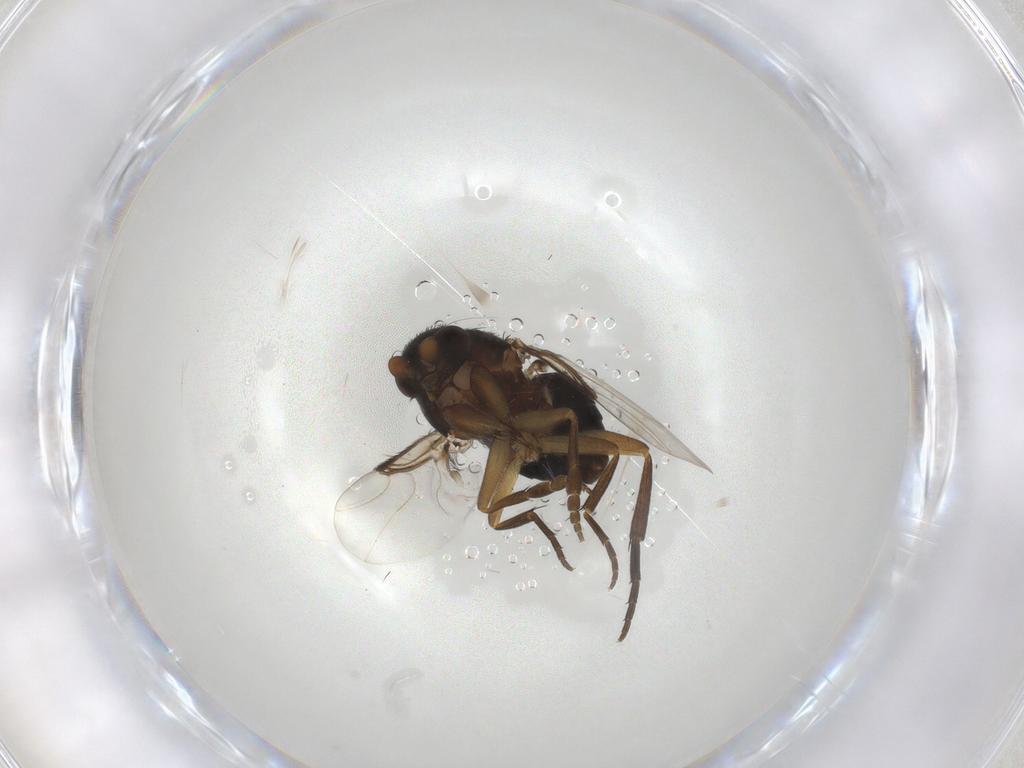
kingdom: Animalia
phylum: Arthropoda
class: Insecta
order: Diptera
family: Phoridae
